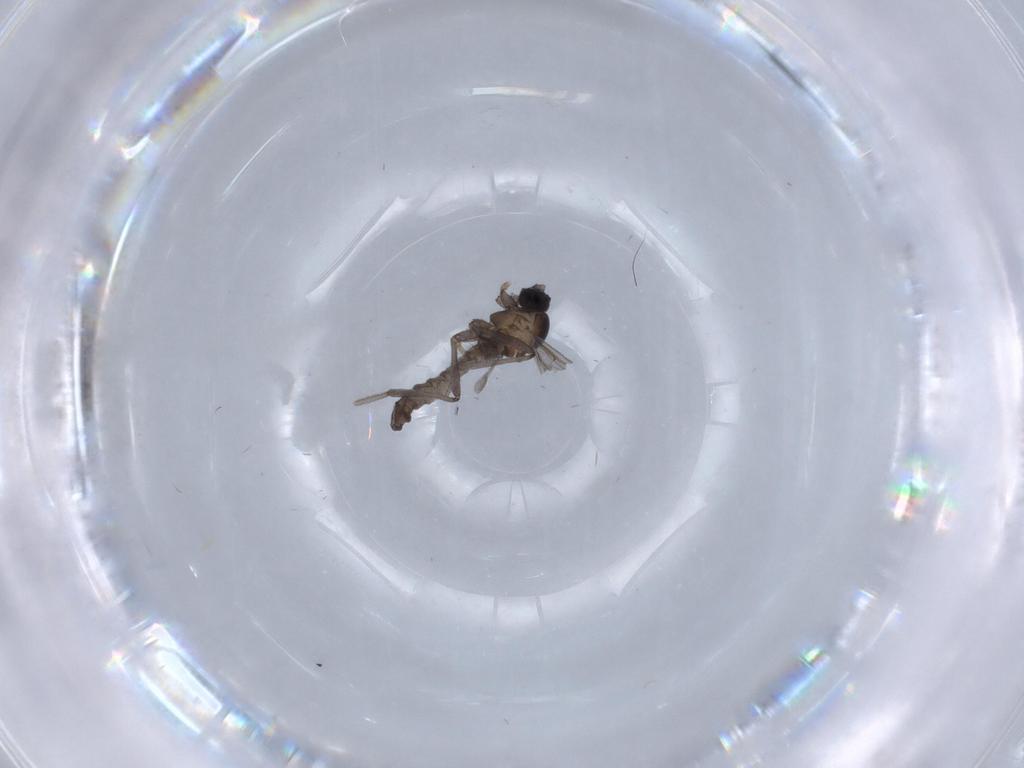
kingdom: Animalia
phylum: Arthropoda
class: Insecta
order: Diptera
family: Cecidomyiidae
